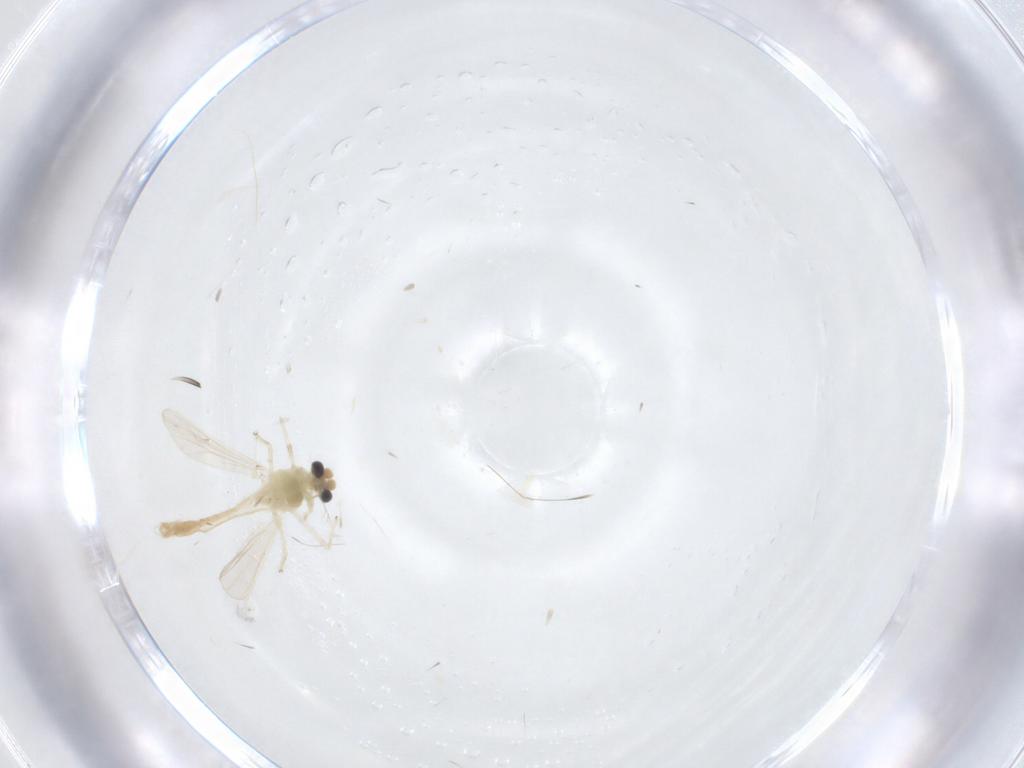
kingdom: Animalia
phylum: Arthropoda
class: Insecta
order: Diptera
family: Chironomidae
